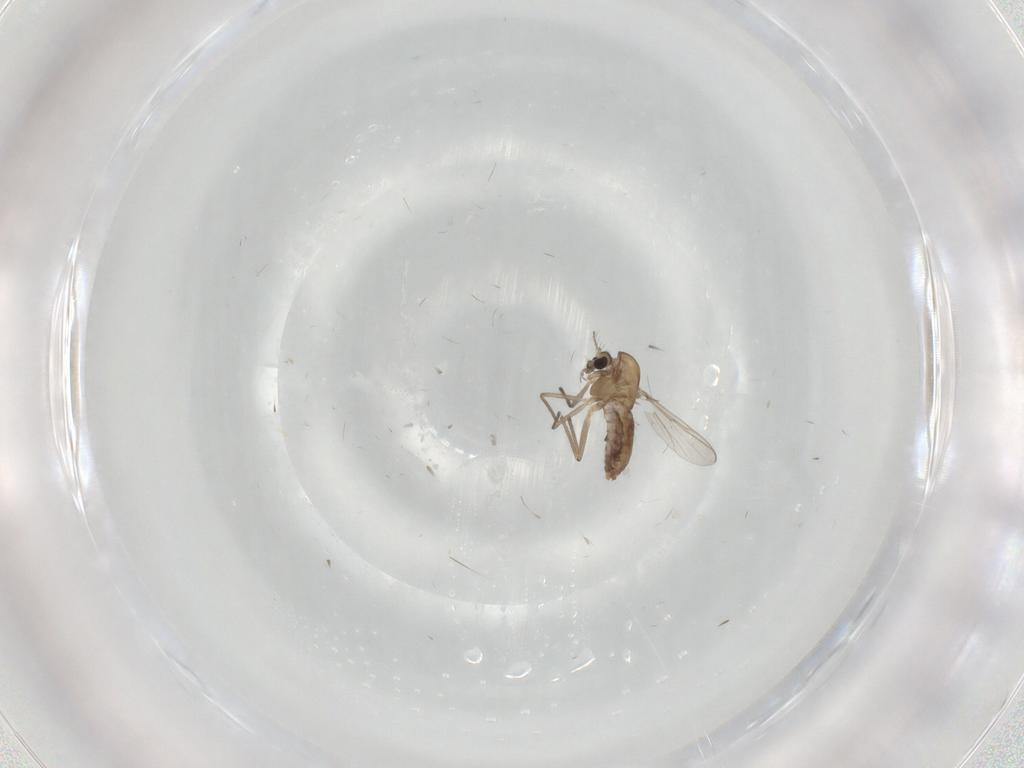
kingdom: Animalia
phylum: Arthropoda
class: Insecta
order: Diptera
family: Chironomidae
